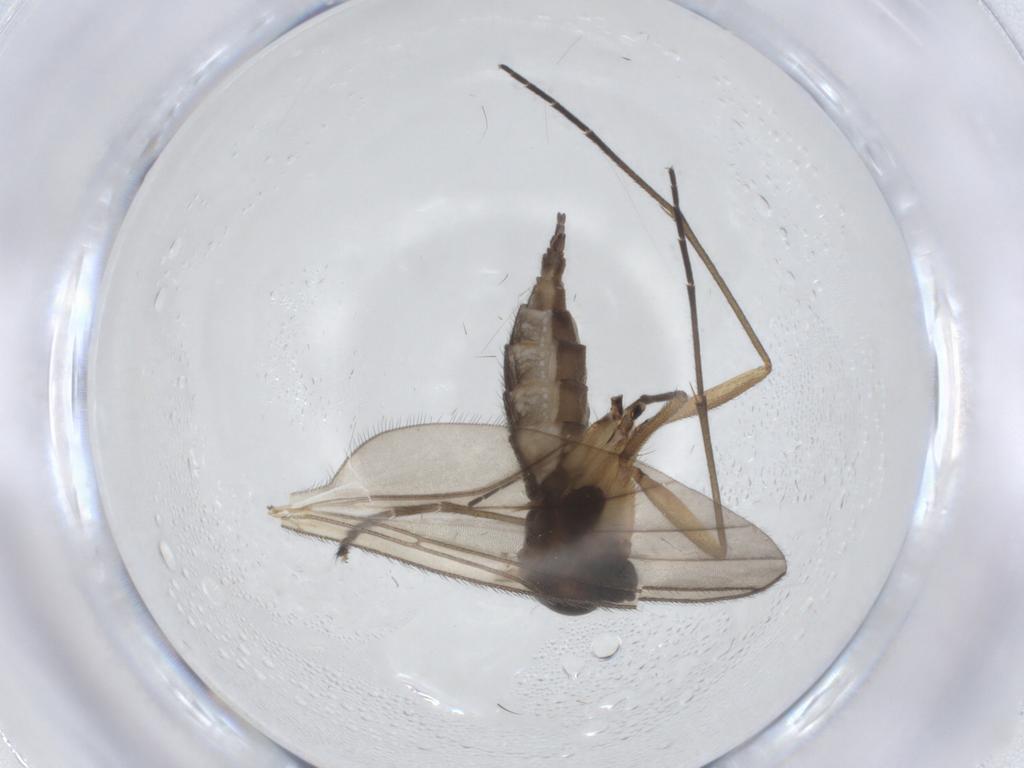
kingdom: Animalia
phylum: Arthropoda
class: Insecta
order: Diptera
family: Sciaridae
